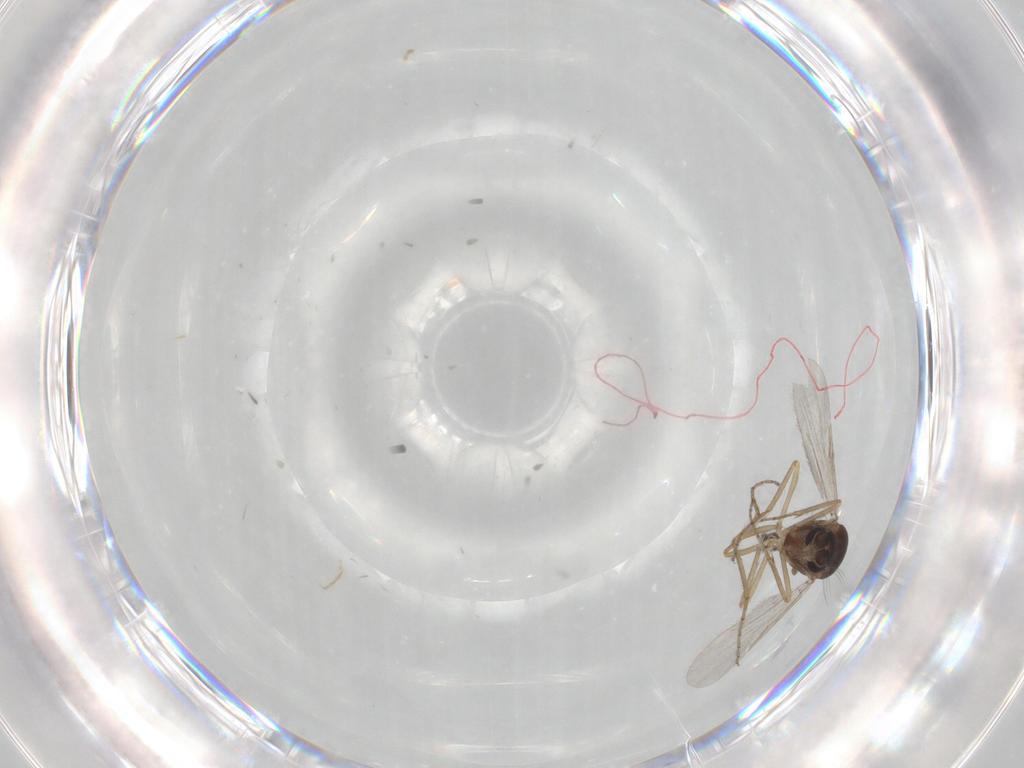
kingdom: Animalia
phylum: Arthropoda
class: Insecta
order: Diptera
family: Ceratopogonidae
